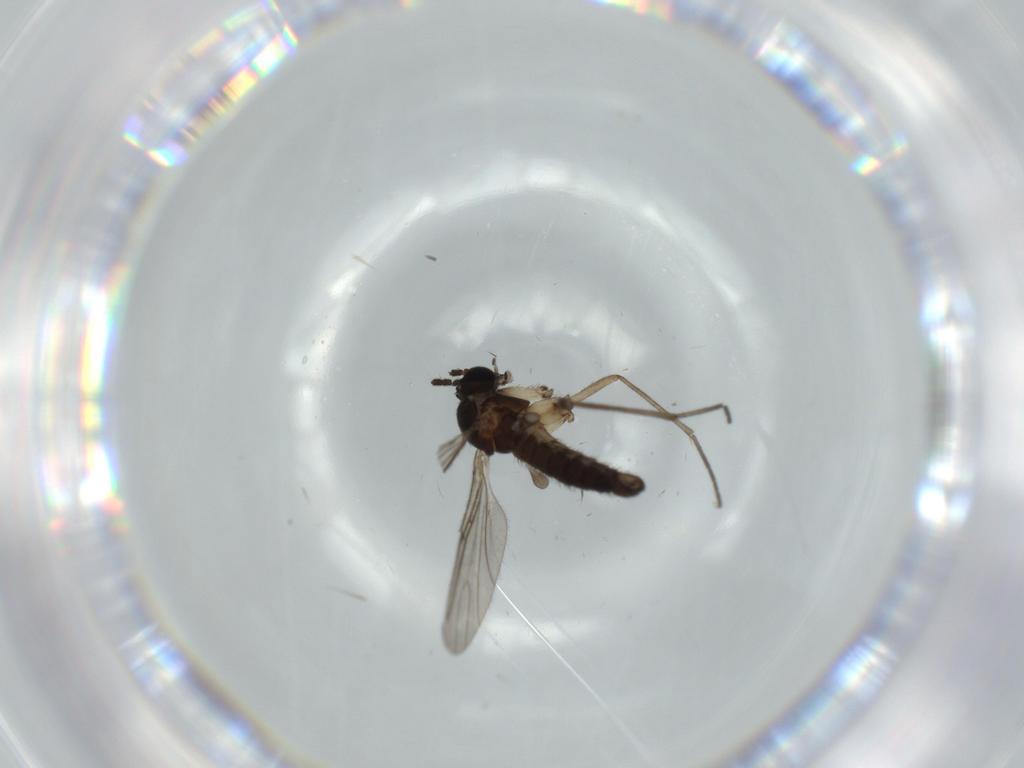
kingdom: Animalia
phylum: Arthropoda
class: Insecta
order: Diptera
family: Sciaridae
